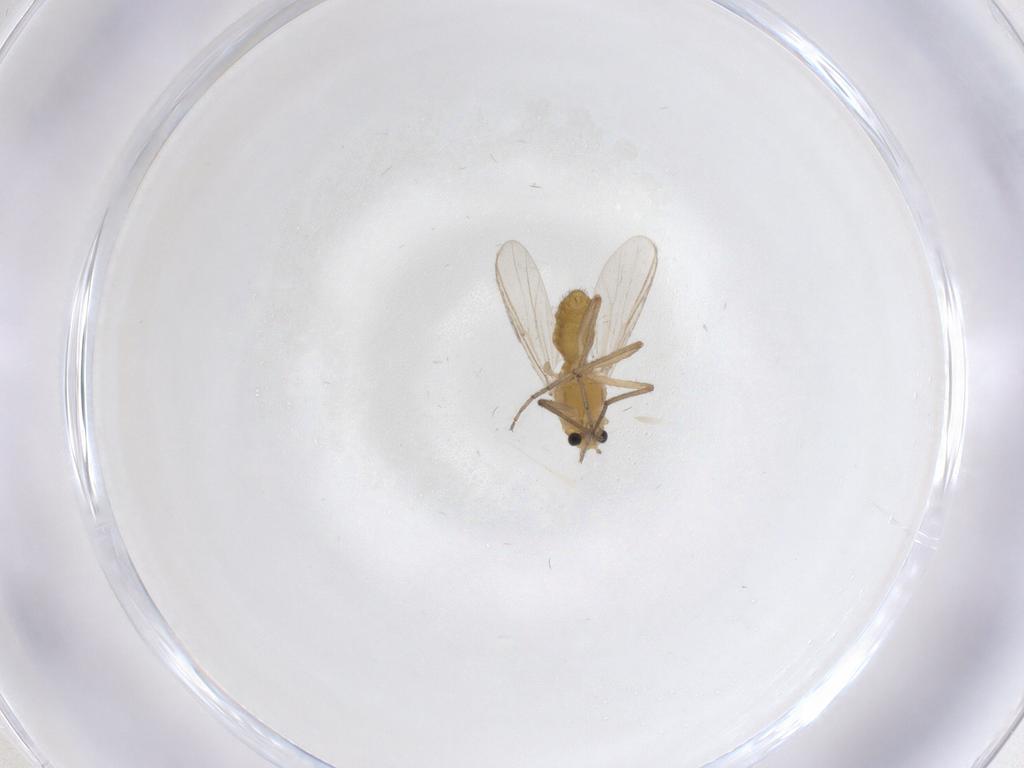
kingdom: Animalia
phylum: Arthropoda
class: Insecta
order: Diptera
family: Chironomidae
